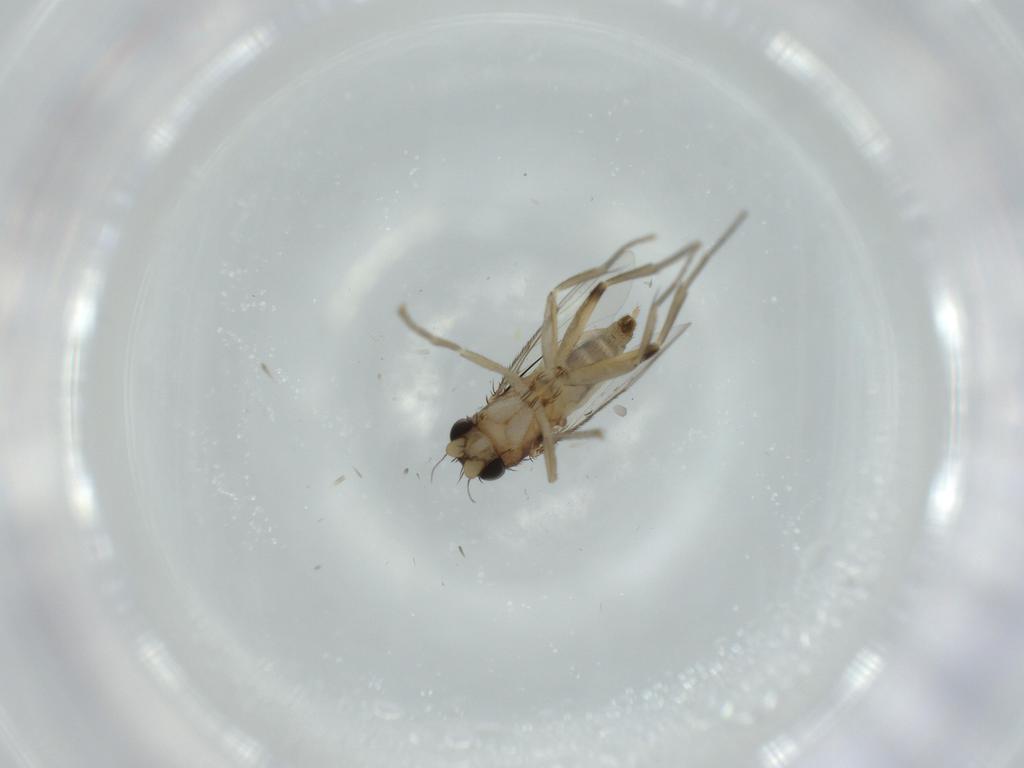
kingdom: Animalia
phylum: Arthropoda
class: Insecta
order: Diptera
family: Phoridae
